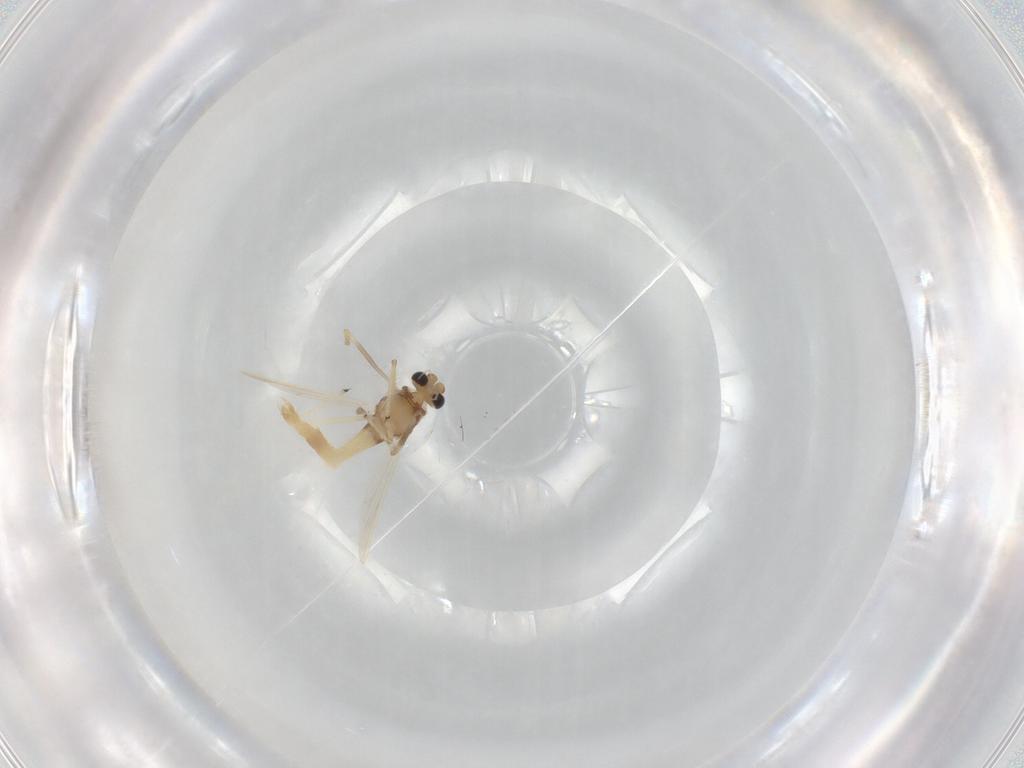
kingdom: Animalia
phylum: Arthropoda
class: Insecta
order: Diptera
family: Chironomidae
